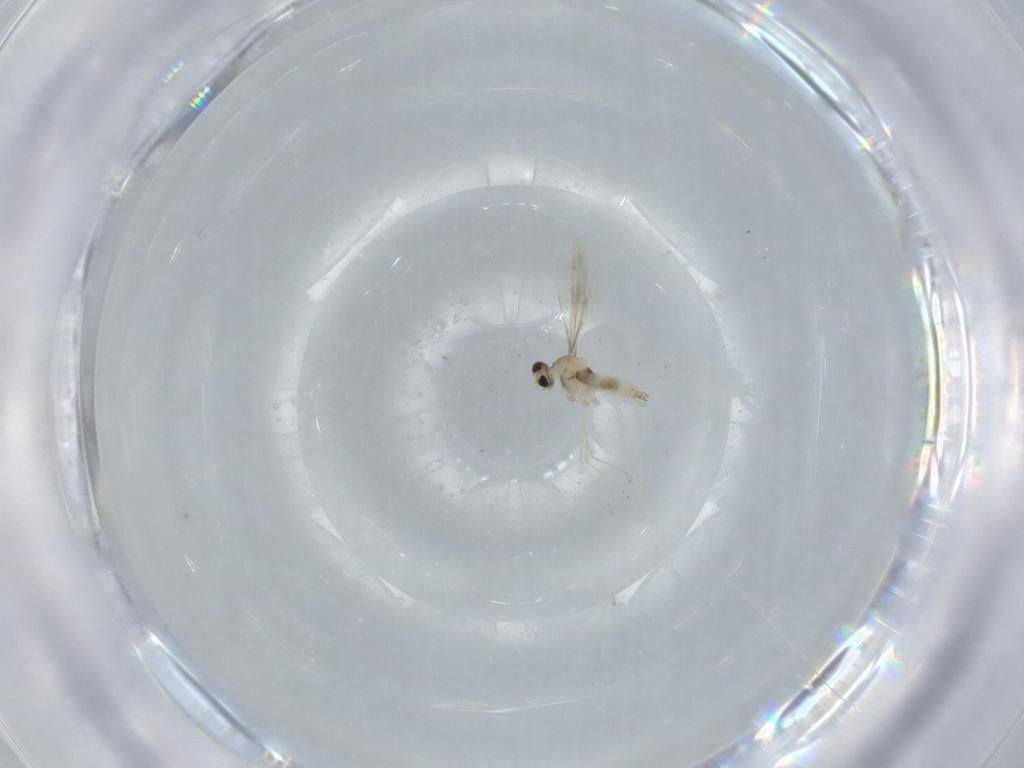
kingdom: Animalia
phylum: Arthropoda
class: Insecta
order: Diptera
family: Cecidomyiidae
